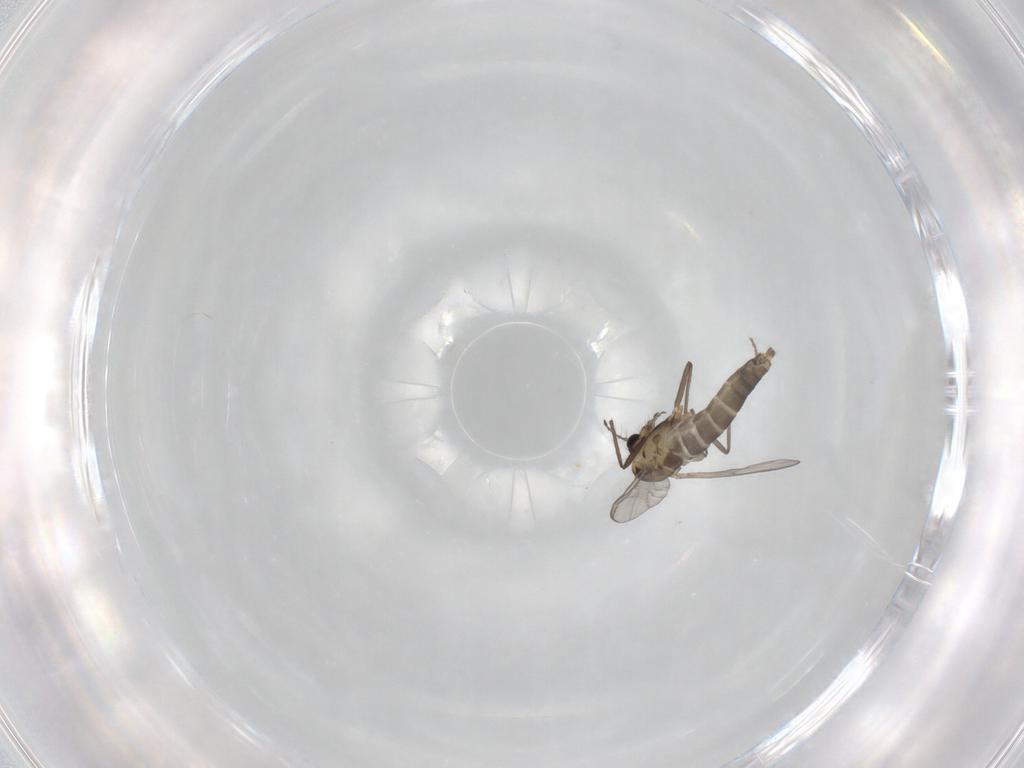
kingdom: Animalia
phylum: Arthropoda
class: Insecta
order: Diptera
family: Chironomidae
